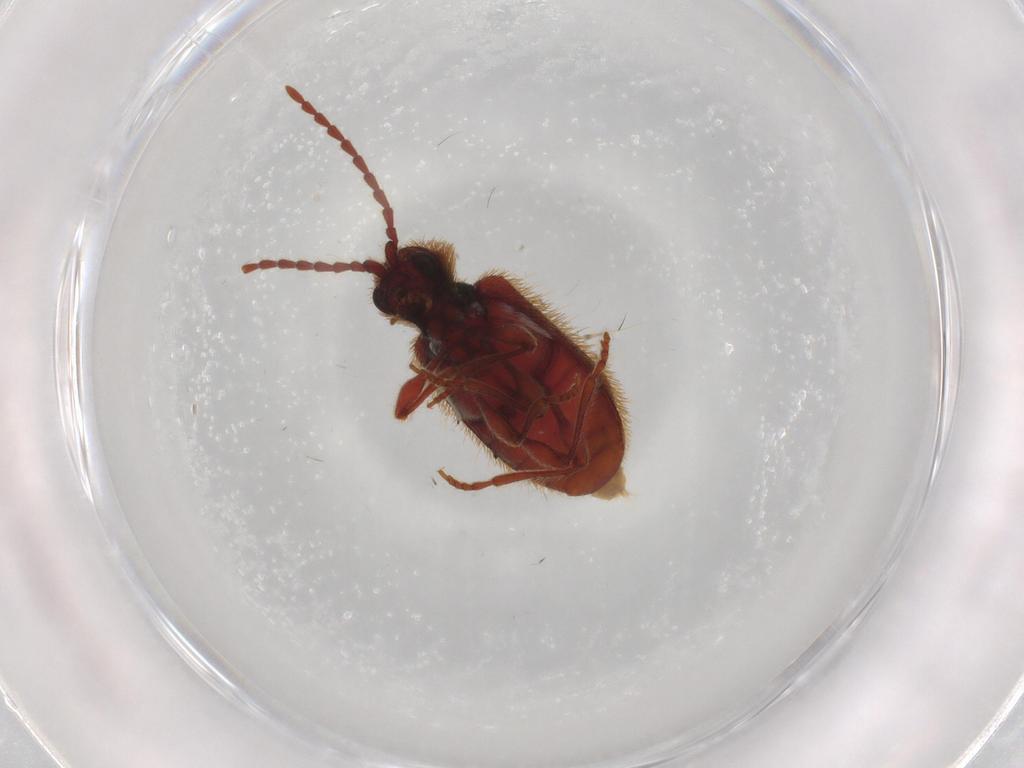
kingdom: Animalia
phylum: Arthropoda
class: Insecta
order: Coleoptera
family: Ptinidae
